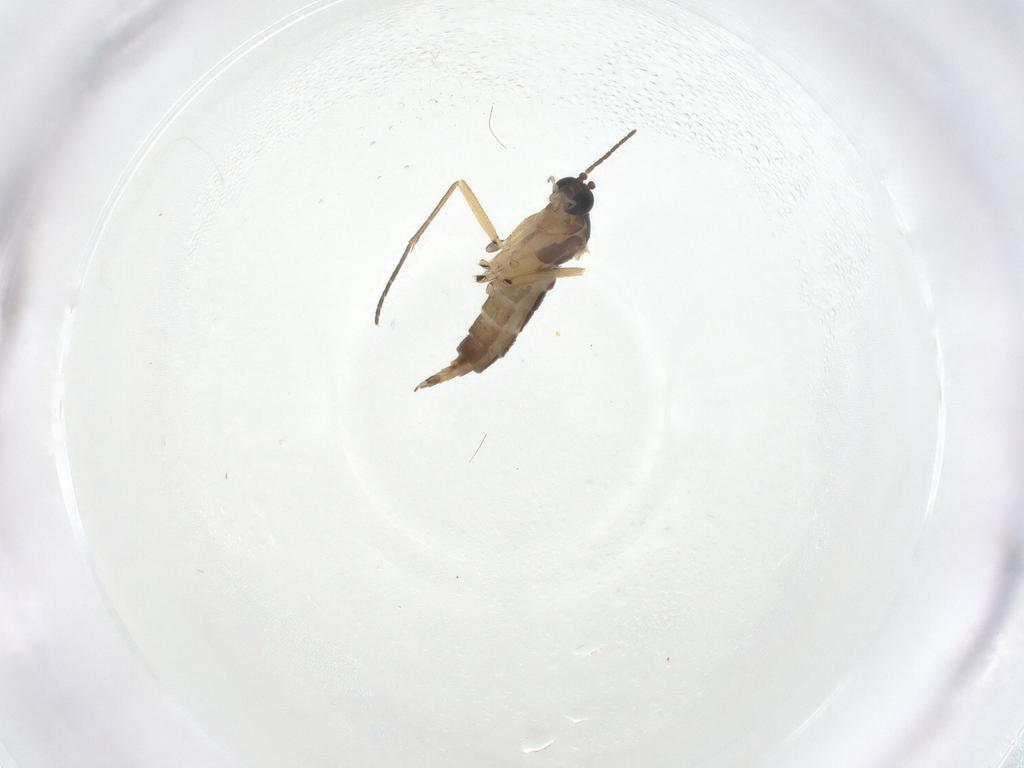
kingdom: Animalia
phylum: Arthropoda
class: Insecta
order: Diptera
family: Sciaridae
